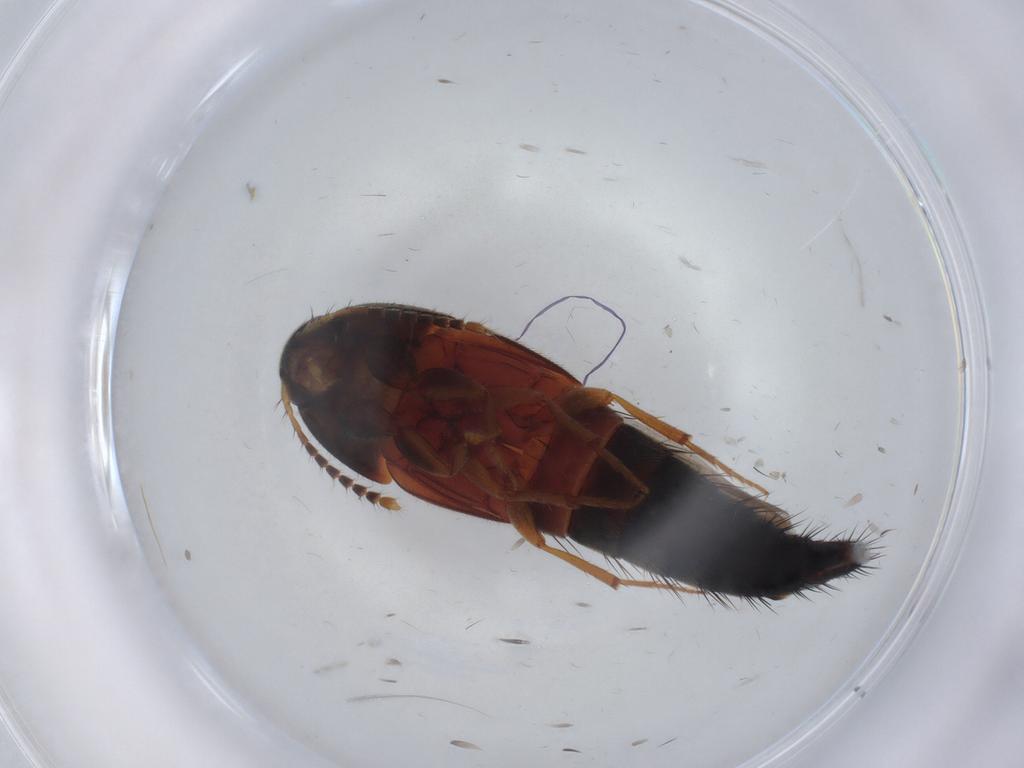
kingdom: Animalia
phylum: Arthropoda
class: Insecta
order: Coleoptera
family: Staphylinidae
